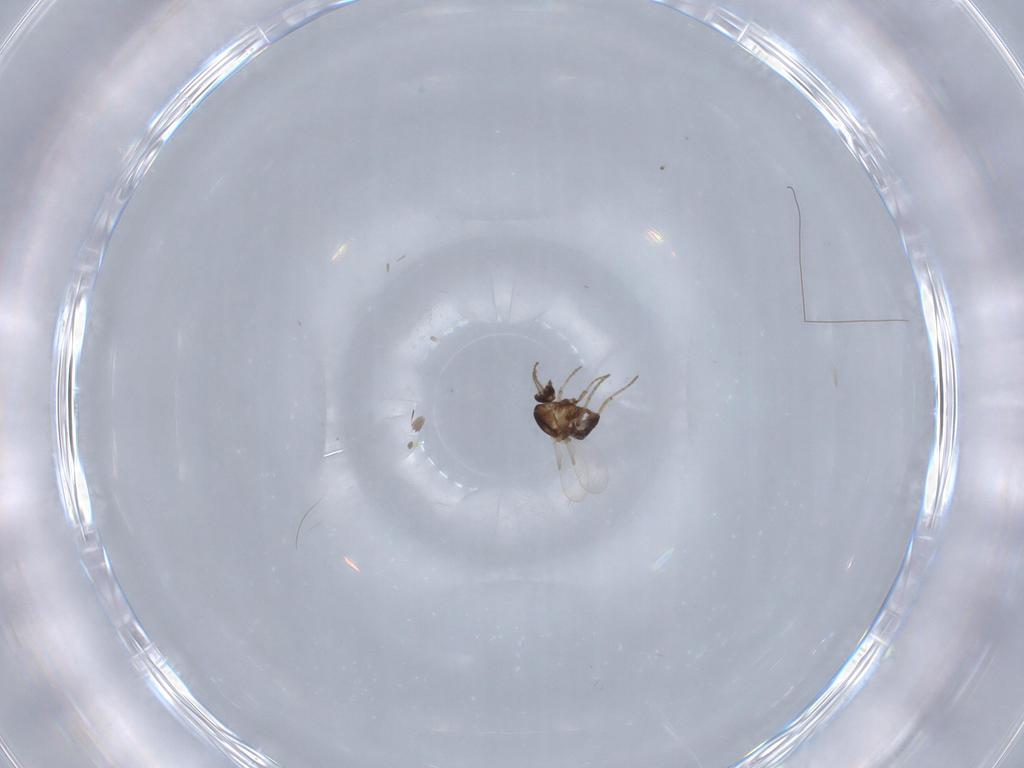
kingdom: Animalia
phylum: Arthropoda
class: Insecta
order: Diptera
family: Ceratopogonidae
